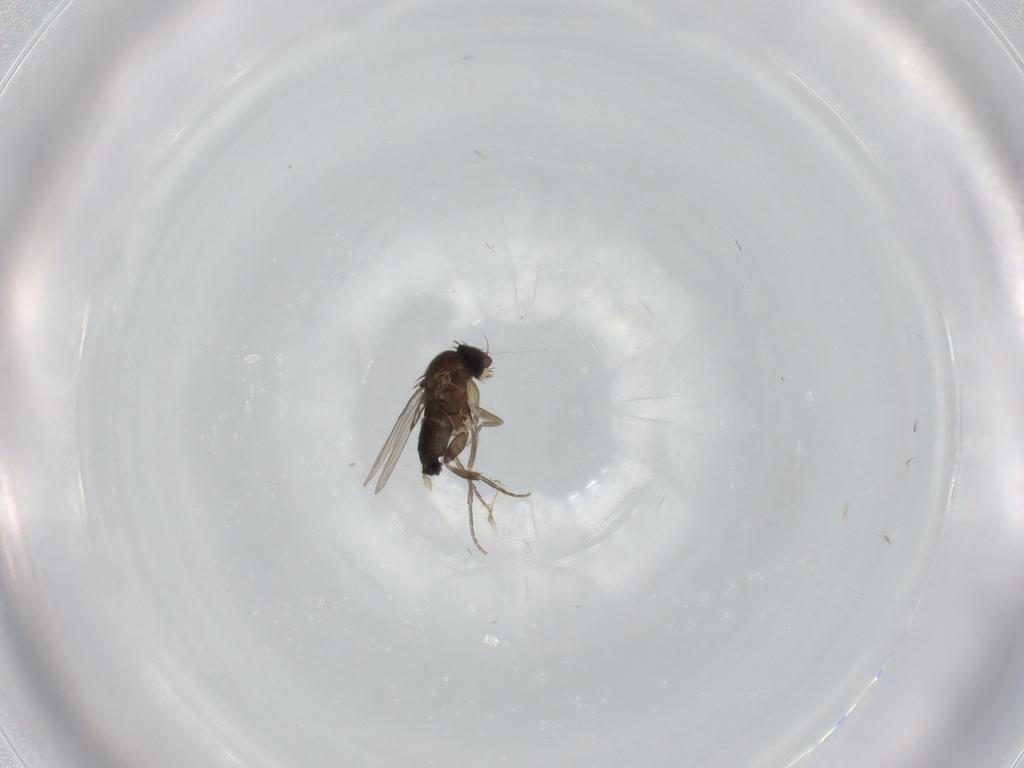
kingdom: Animalia
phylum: Arthropoda
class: Insecta
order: Diptera
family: Phoridae
